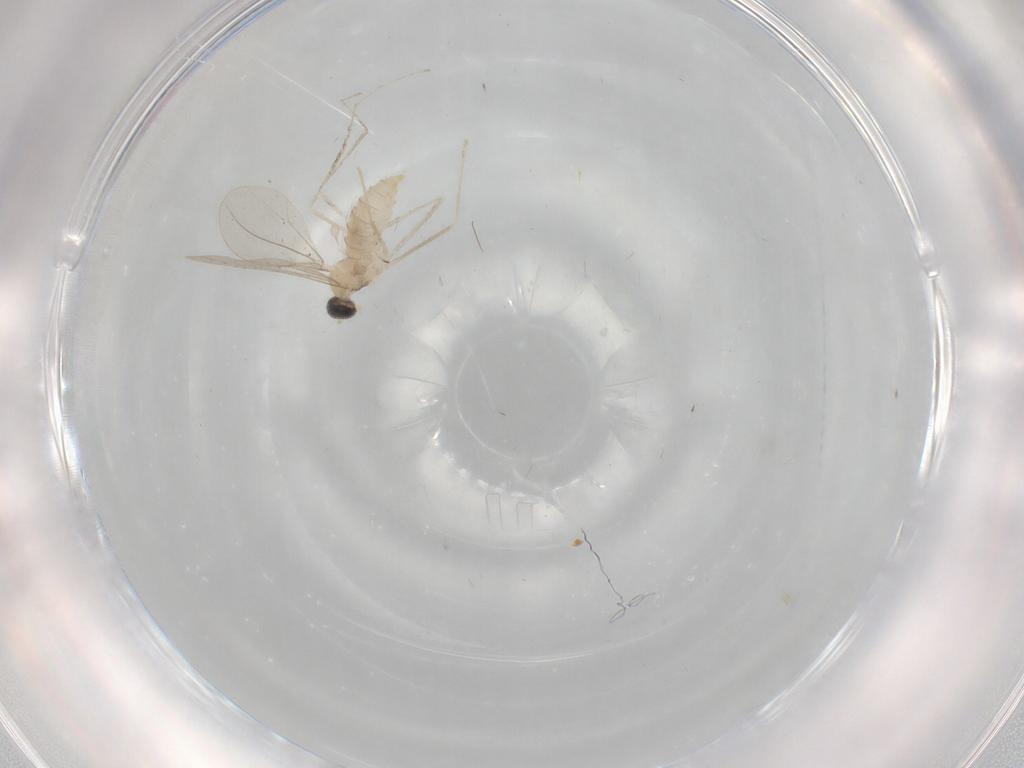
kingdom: Animalia
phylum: Arthropoda
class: Insecta
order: Diptera
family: Cecidomyiidae
